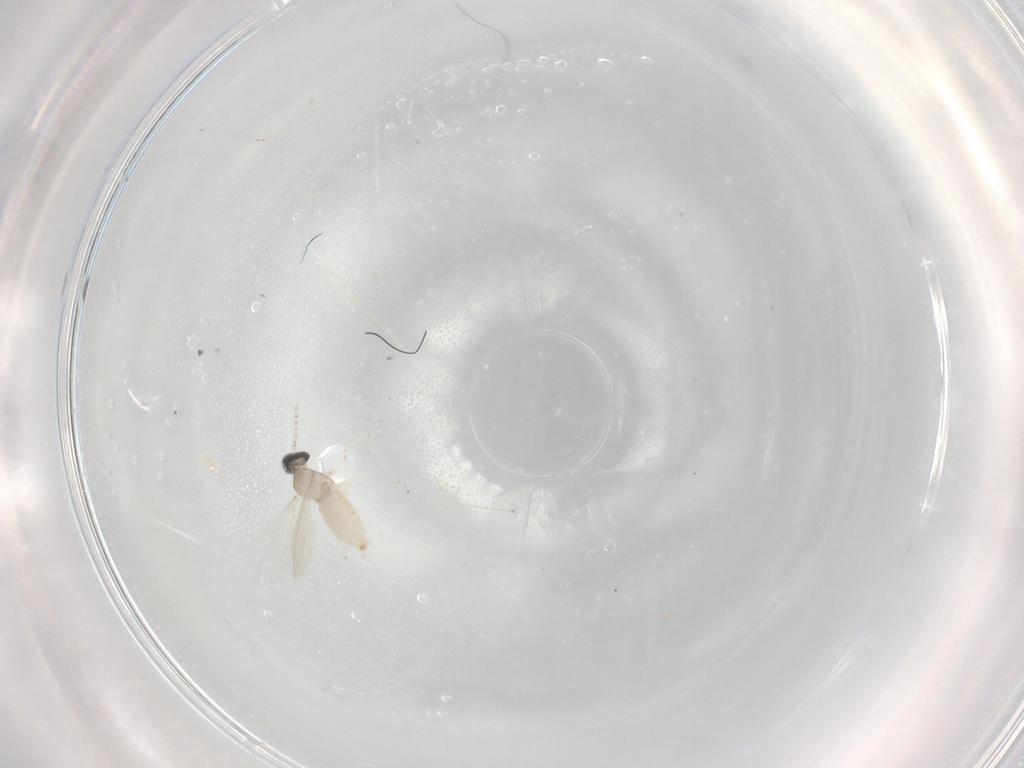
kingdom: Animalia
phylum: Arthropoda
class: Insecta
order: Diptera
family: Cecidomyiidae
